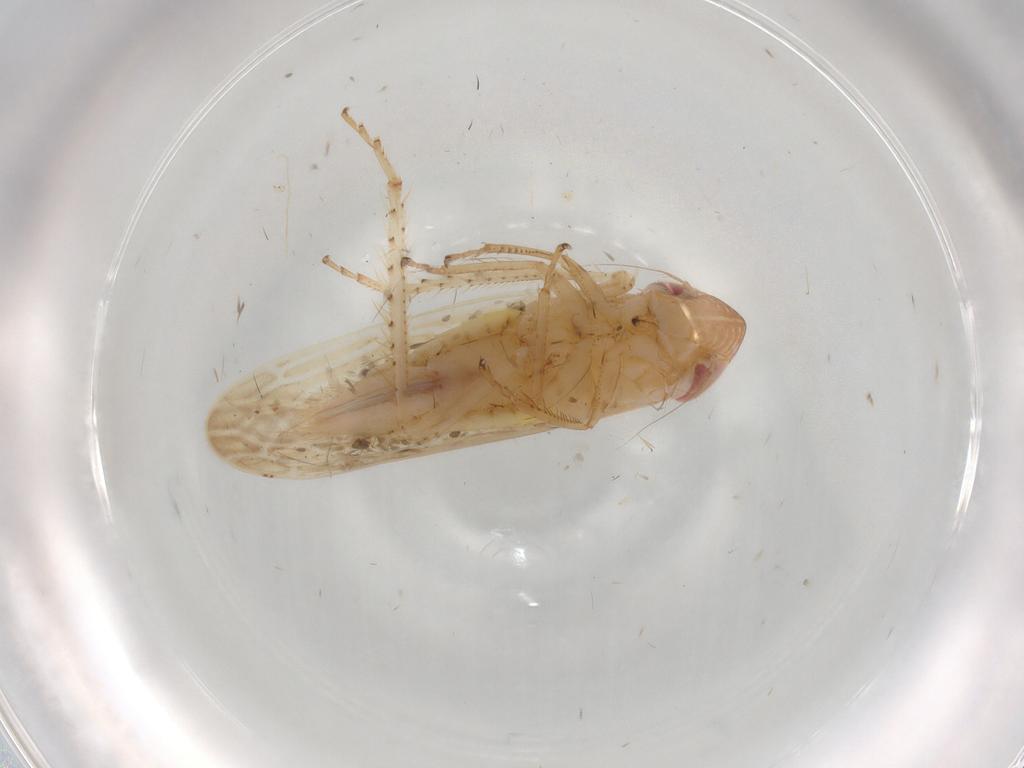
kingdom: Animalia
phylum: Arthropoda
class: Insecta
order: Hemiptera
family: Cicadellidae
